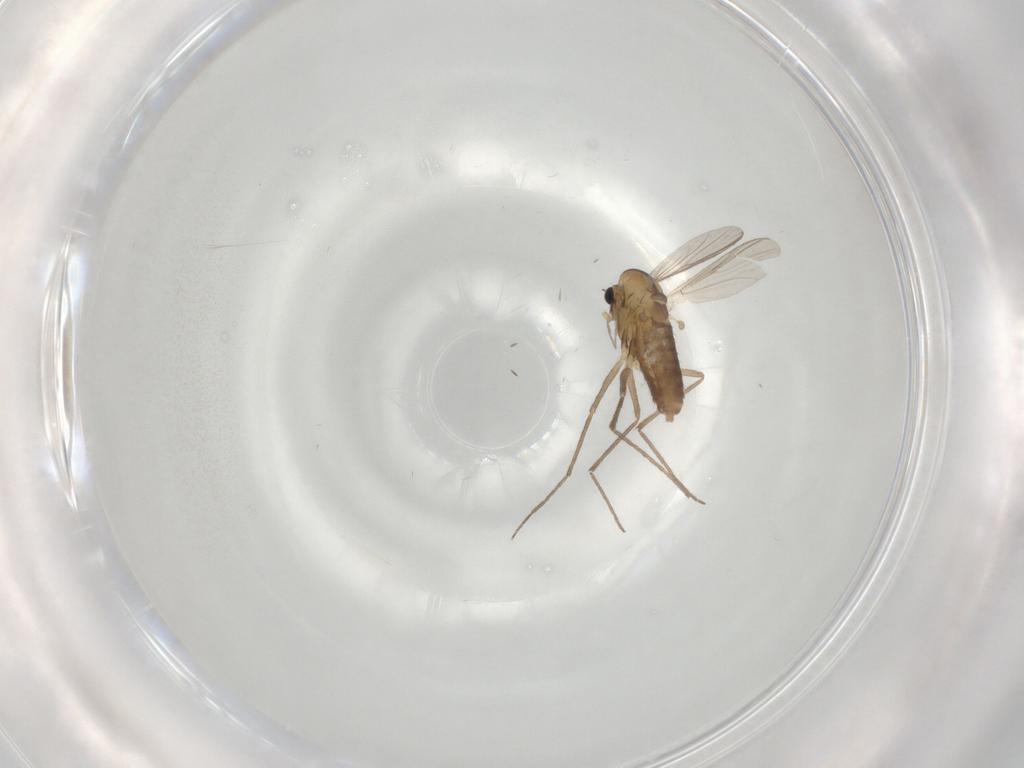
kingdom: Animalia
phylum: Arthropoda
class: Insecta
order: Diptera
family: Chironomidae
